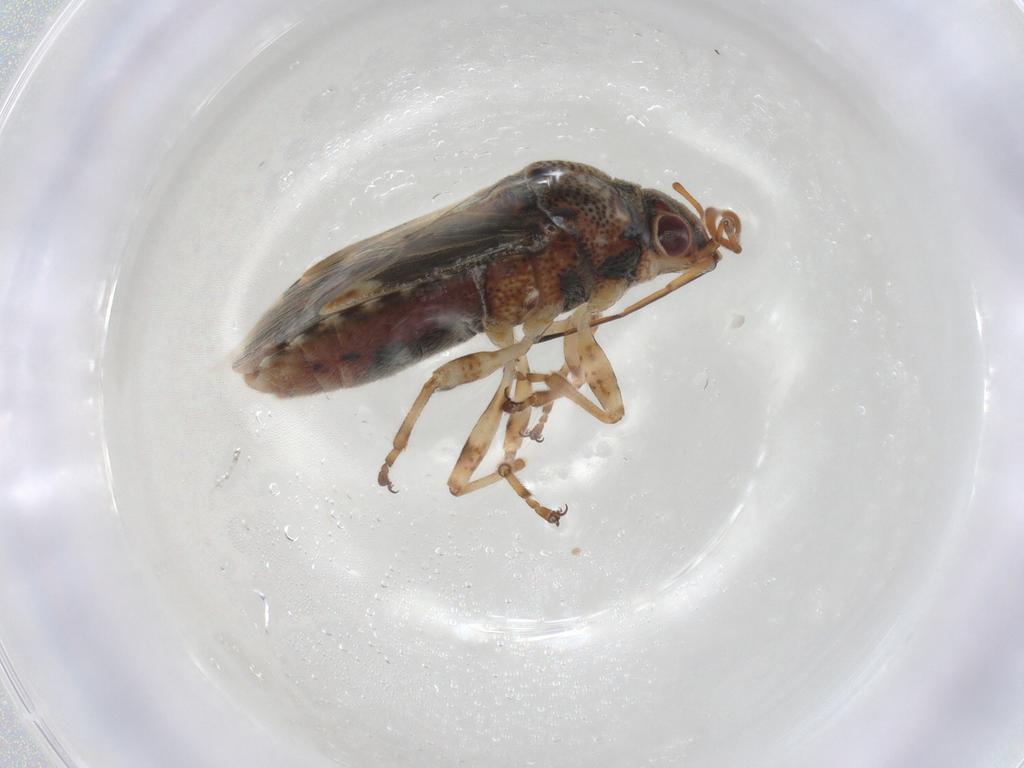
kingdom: Animalia
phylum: Arthropoda
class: Insecta
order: Hemiptera
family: Lygaeidae
